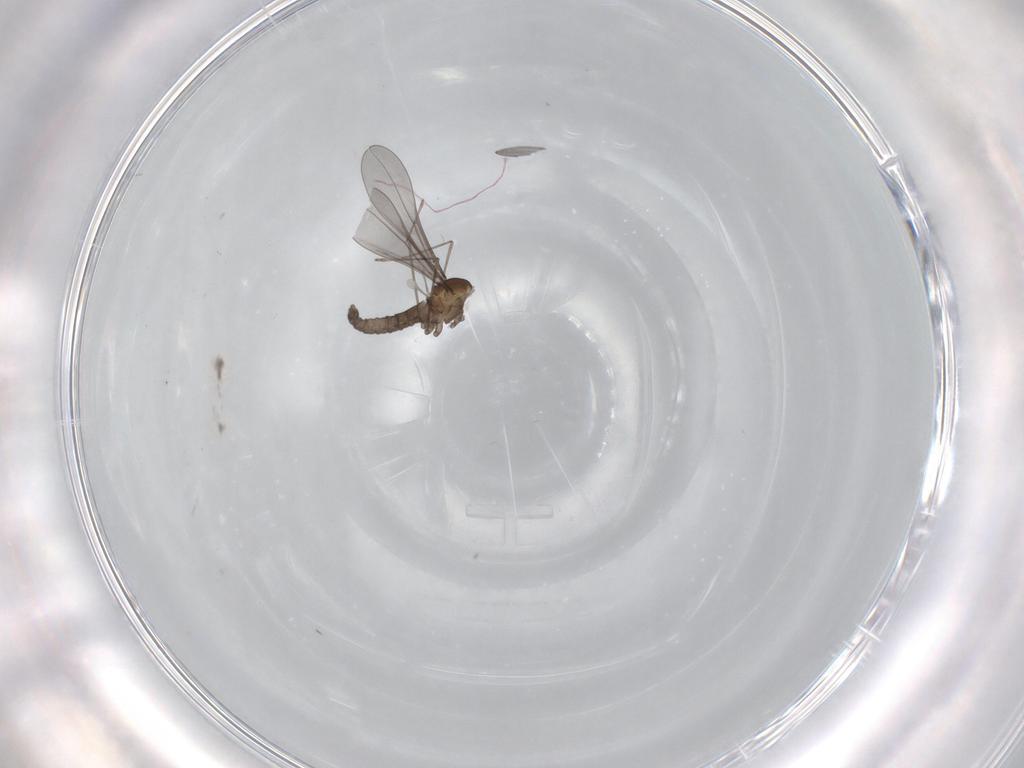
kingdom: Animalia
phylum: Arthropoda
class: Insecta
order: Diptera
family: Cecidomyiidae
